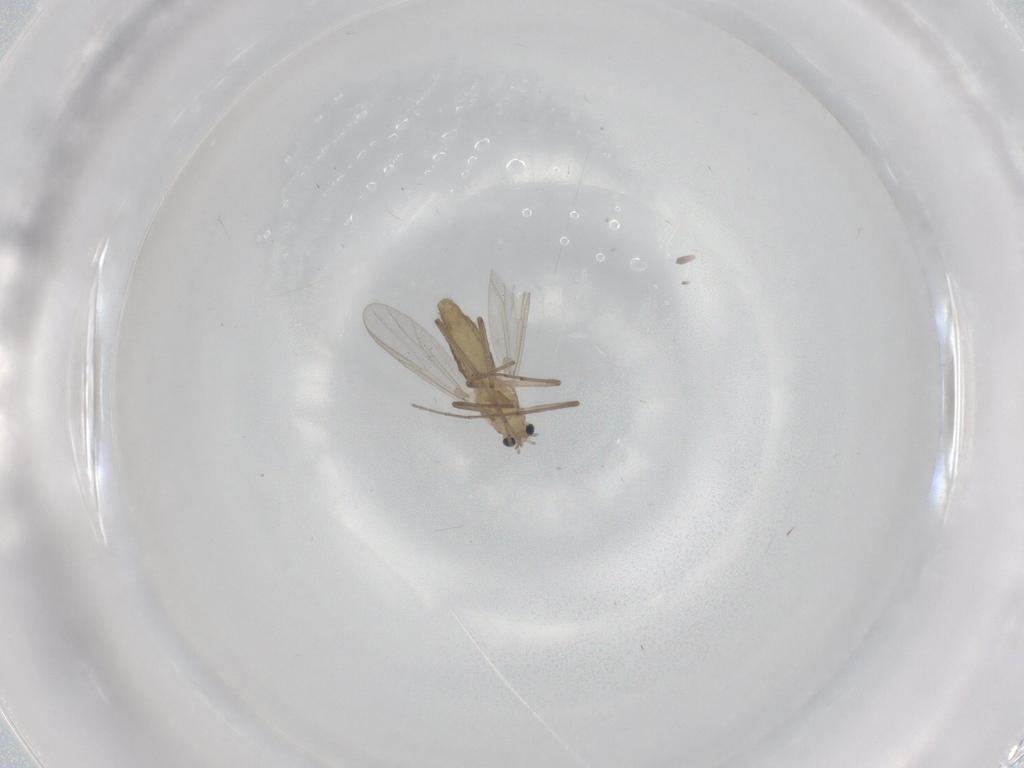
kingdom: Animalia
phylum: Arthropoda
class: Insecta
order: Diptera
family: Chironomidae
